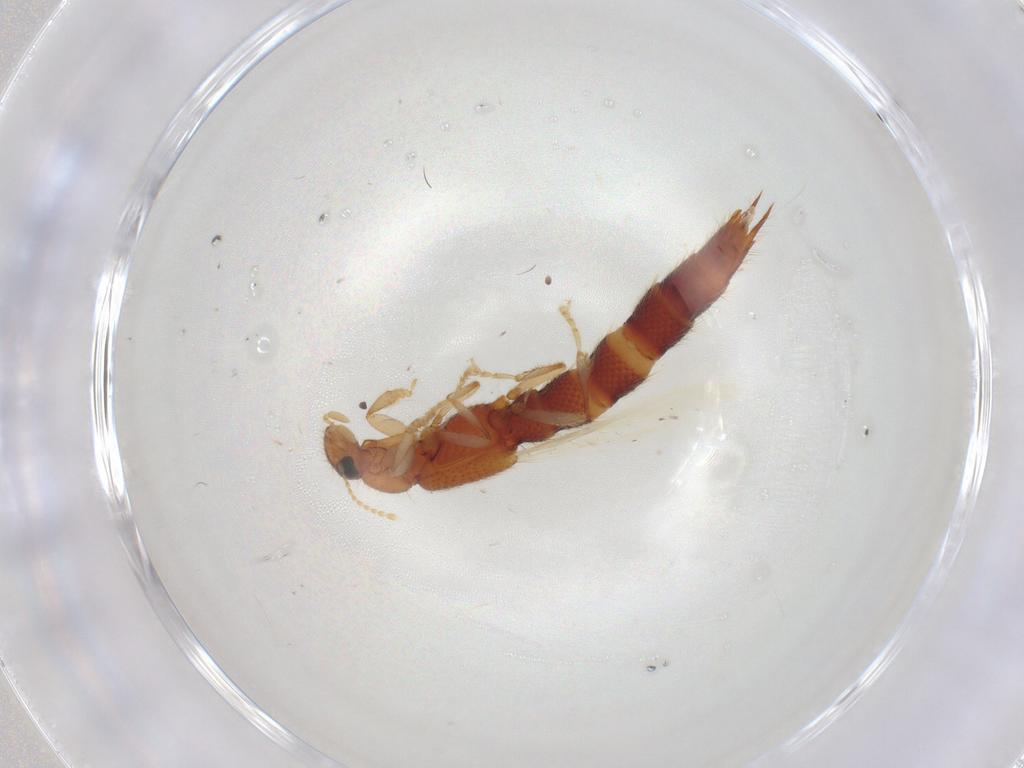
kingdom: Animalia
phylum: Arthropoda
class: Insecta
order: Coleoptera
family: Staphylinidae
